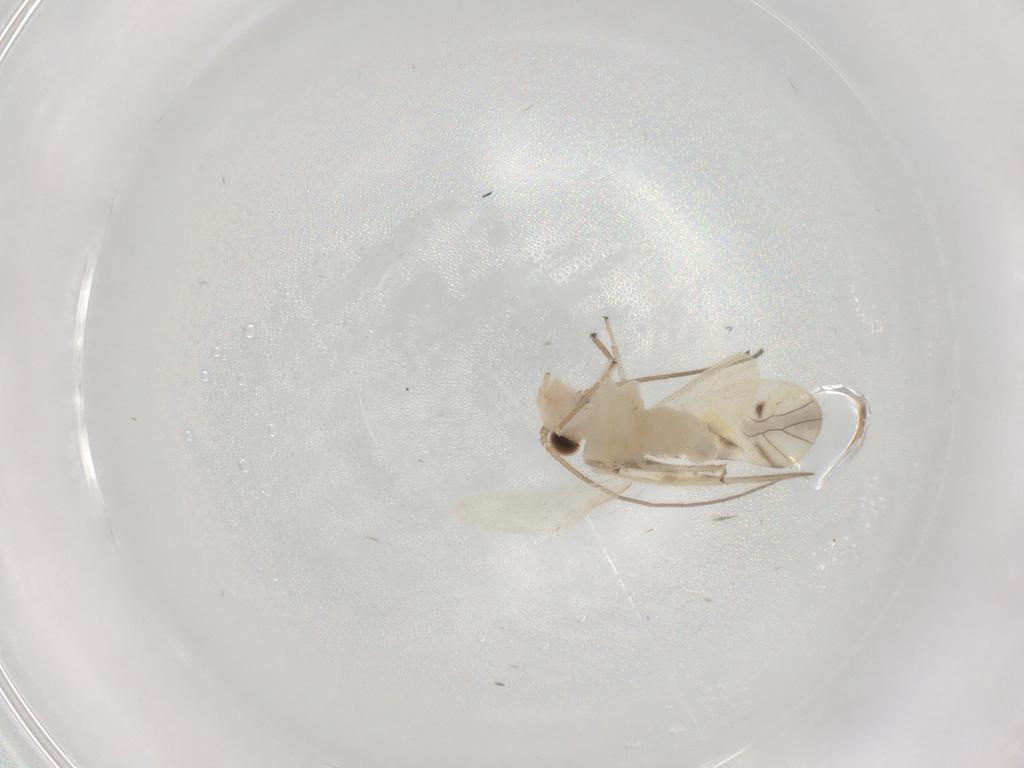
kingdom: Animalia
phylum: Arthropoda
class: Insecta
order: Psocodea
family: Caeciliusidae
